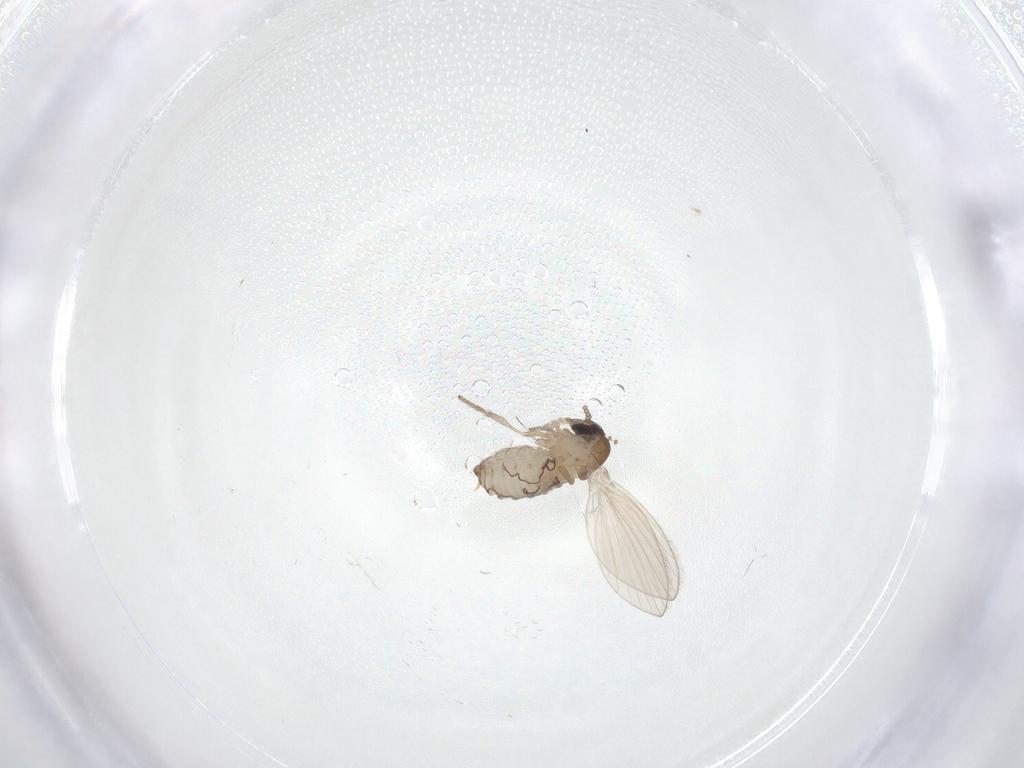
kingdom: Animalia
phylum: Arthropoda
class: Insecta
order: Diptera
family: Psychodidae
